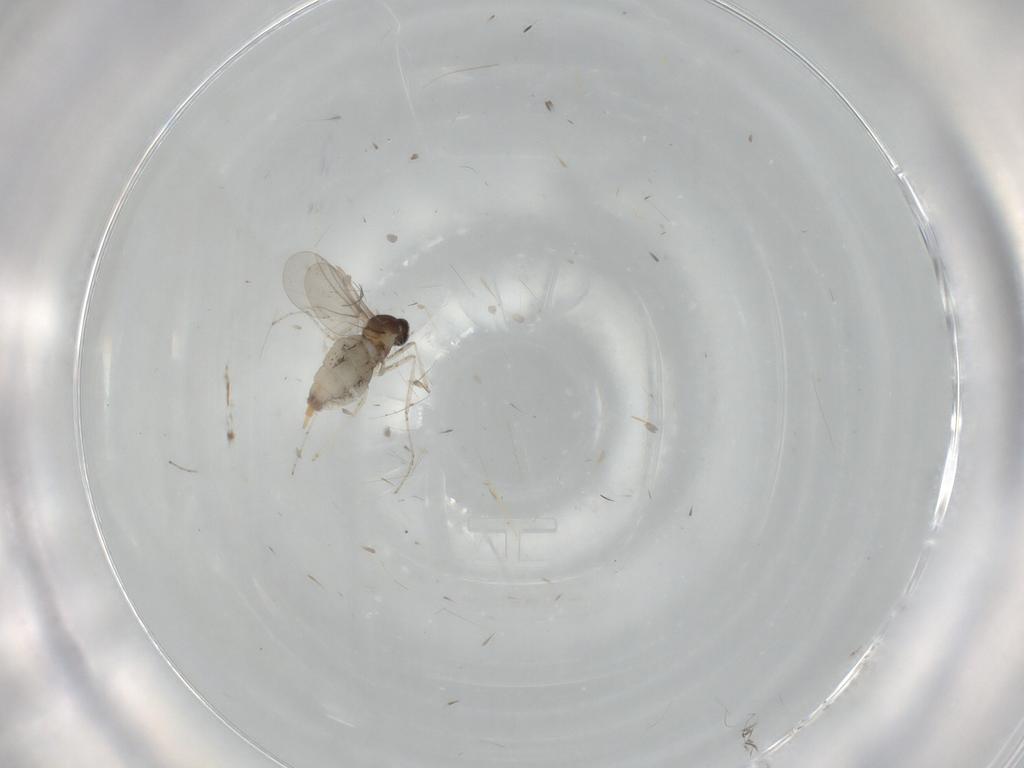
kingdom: Animalia
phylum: Arthropoda
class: Insecta
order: Diptera
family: Cecidomyiidae
